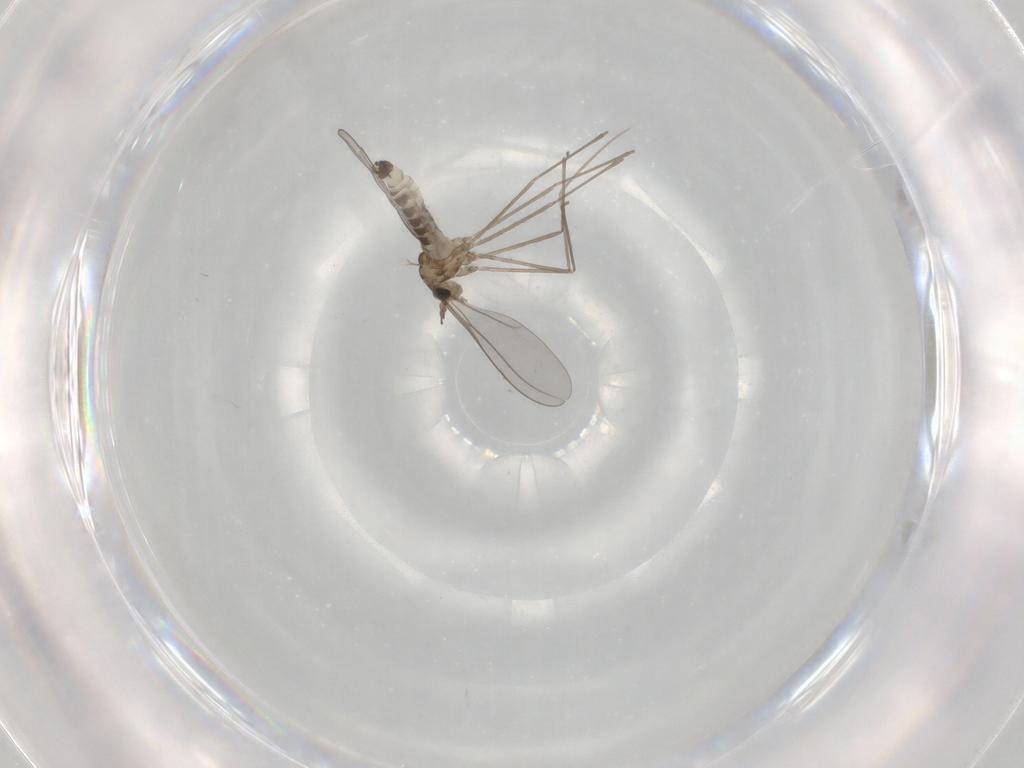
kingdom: Animalia
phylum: Arthropoda
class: Insecta
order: Diptera
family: Cecidomyiidae
